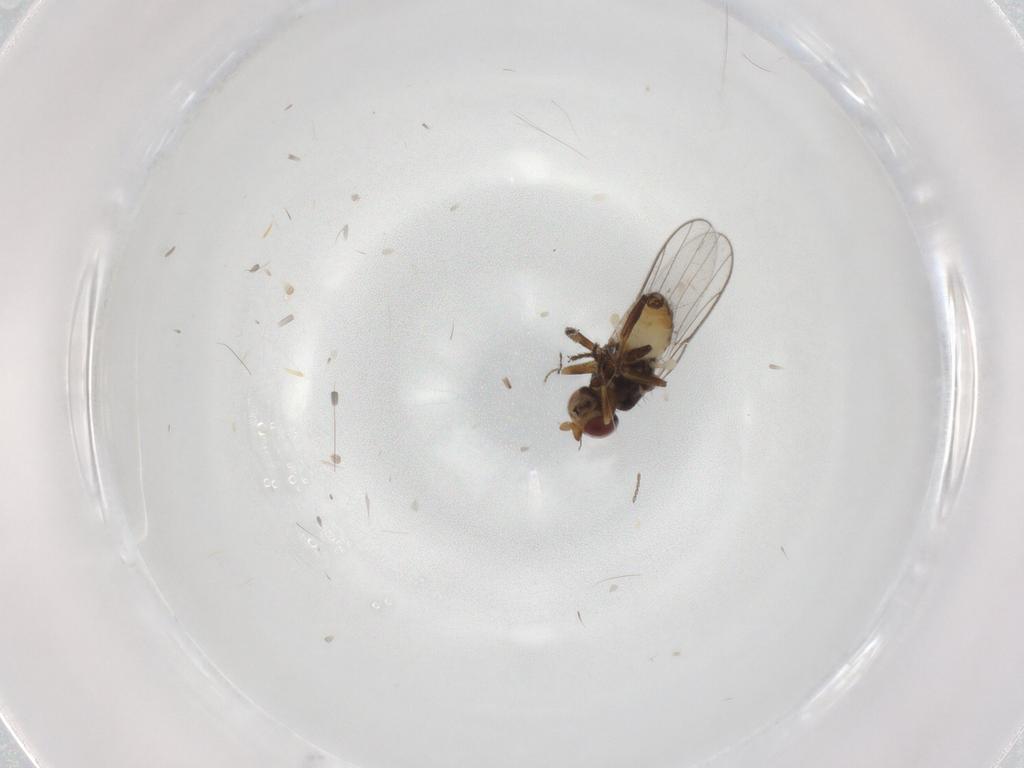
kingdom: Animalia
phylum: Arthropoda
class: Insecta
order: Diptera
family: Chloropidae
